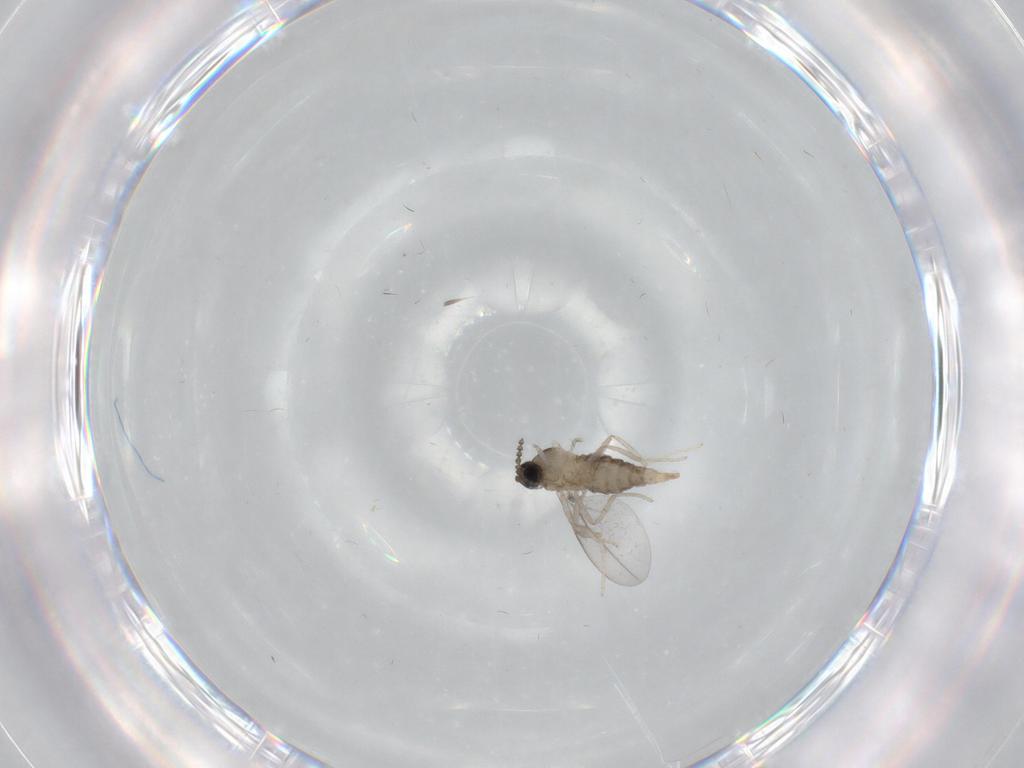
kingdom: Animalia
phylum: Arthropoda
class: Insecta
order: Diptera
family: Cecidomyiidae
